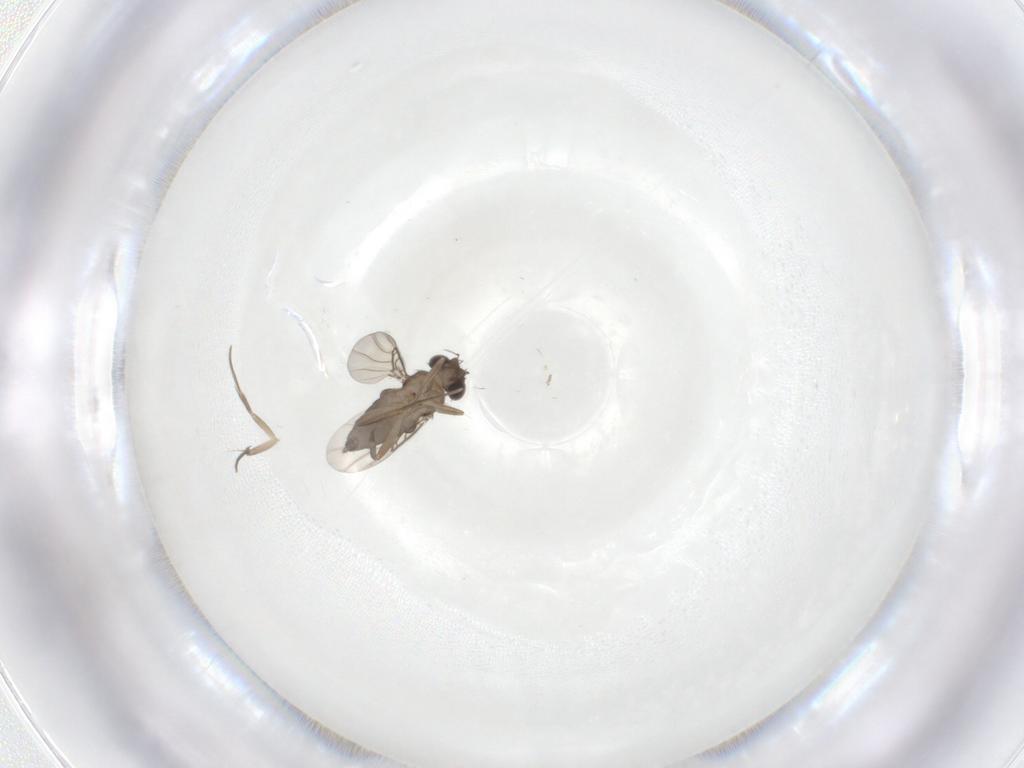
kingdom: Animalia
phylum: Arthropoda
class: Insecta
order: Diptera
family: Phoridae
